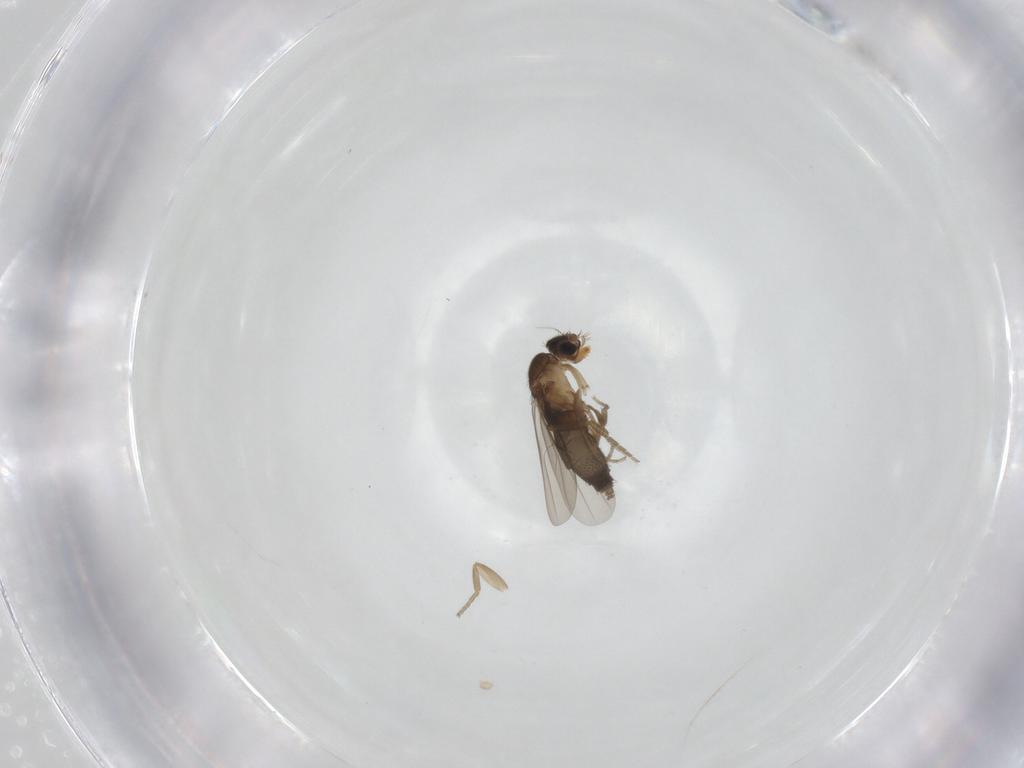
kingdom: Animalia
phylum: Arthropoda
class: Insecta
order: Diptera
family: Phoridae
